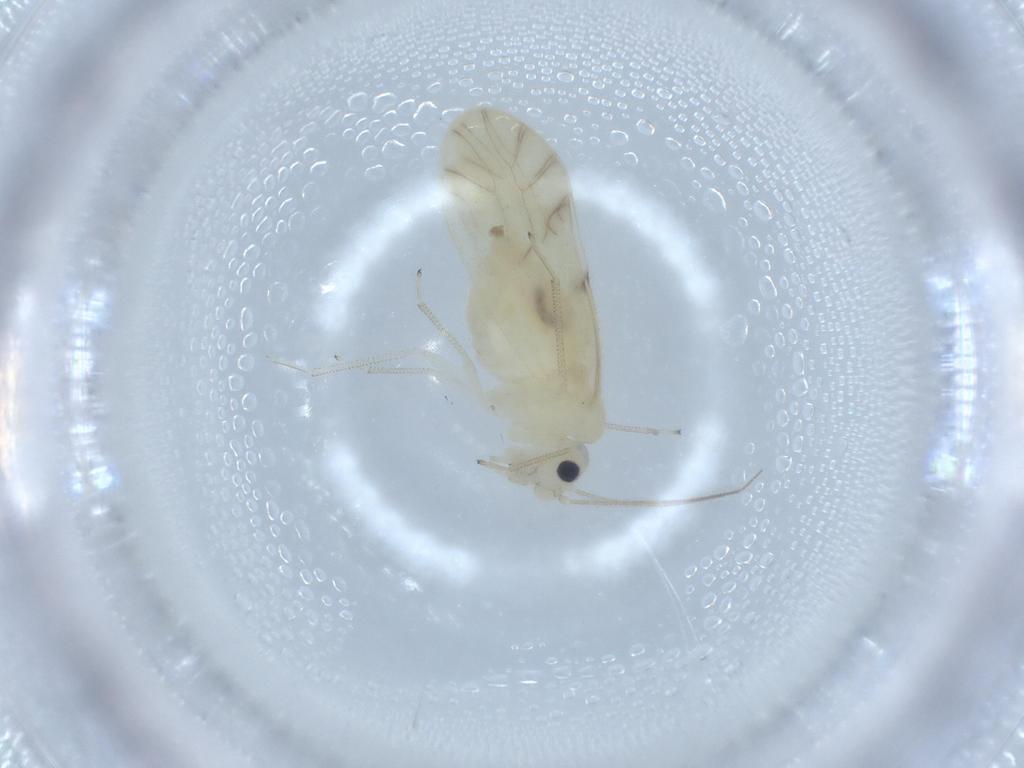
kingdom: Animalia
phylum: Arthropoda
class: Insecta
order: Psocodea
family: Caeciliusidae
